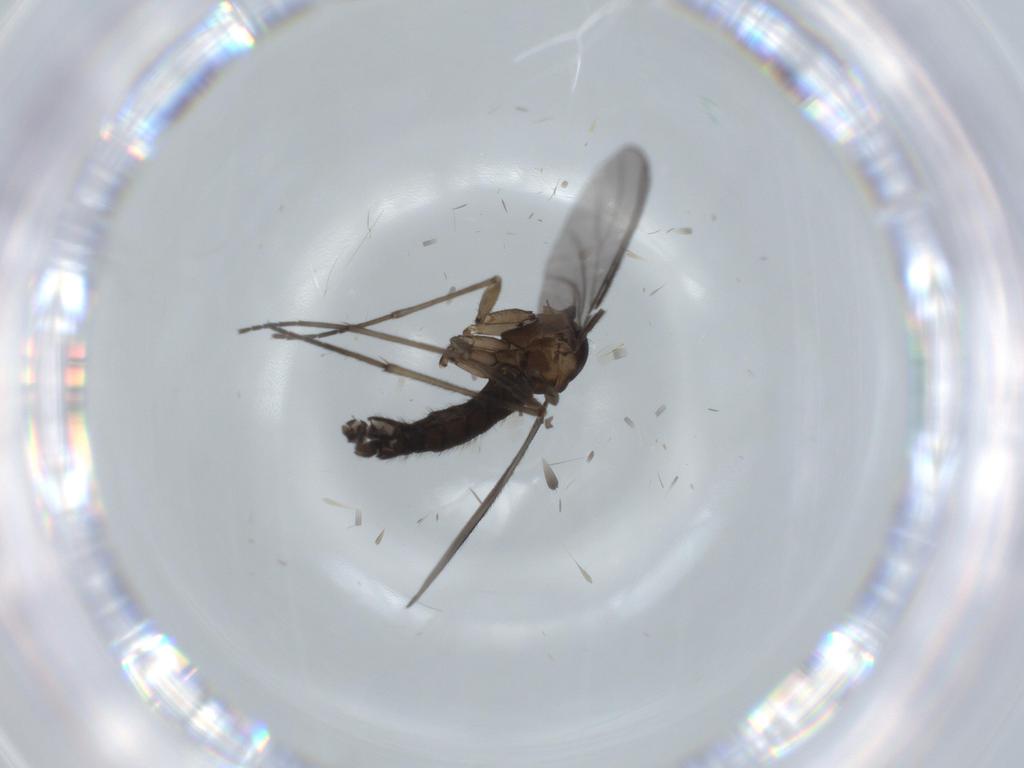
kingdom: Animalia
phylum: Arthropoda
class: Insecta
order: Diptera
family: Sciaridae
